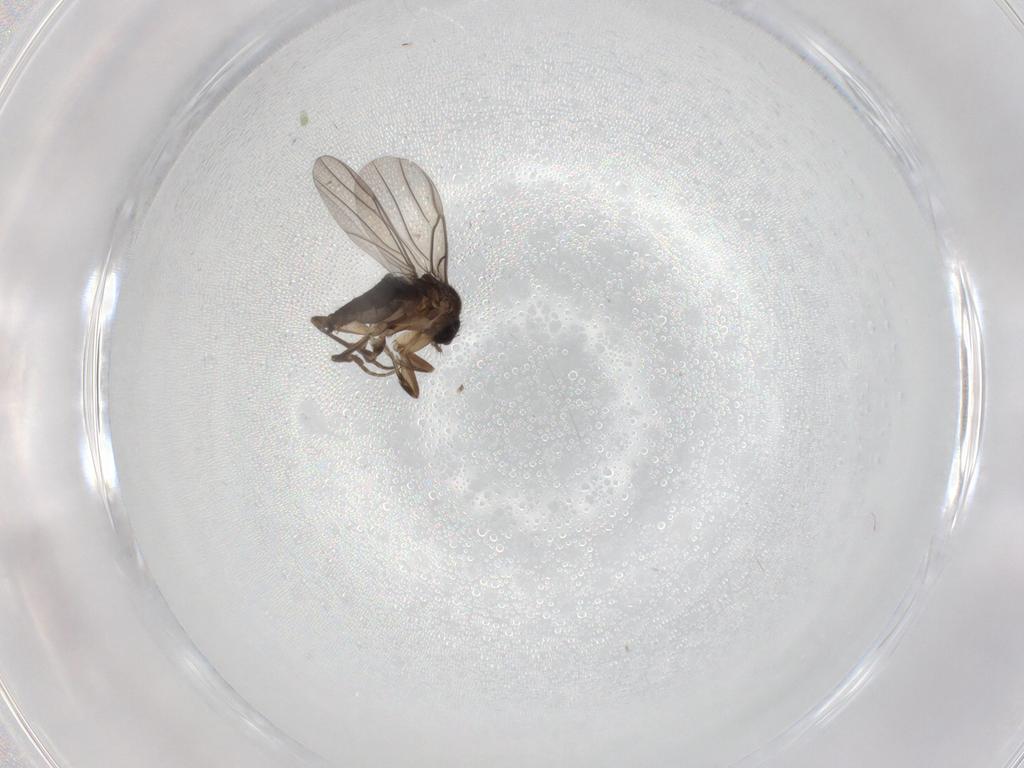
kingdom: Animalia
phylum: Arthropoda
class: Insecta
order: Diptera
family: Phoridae
